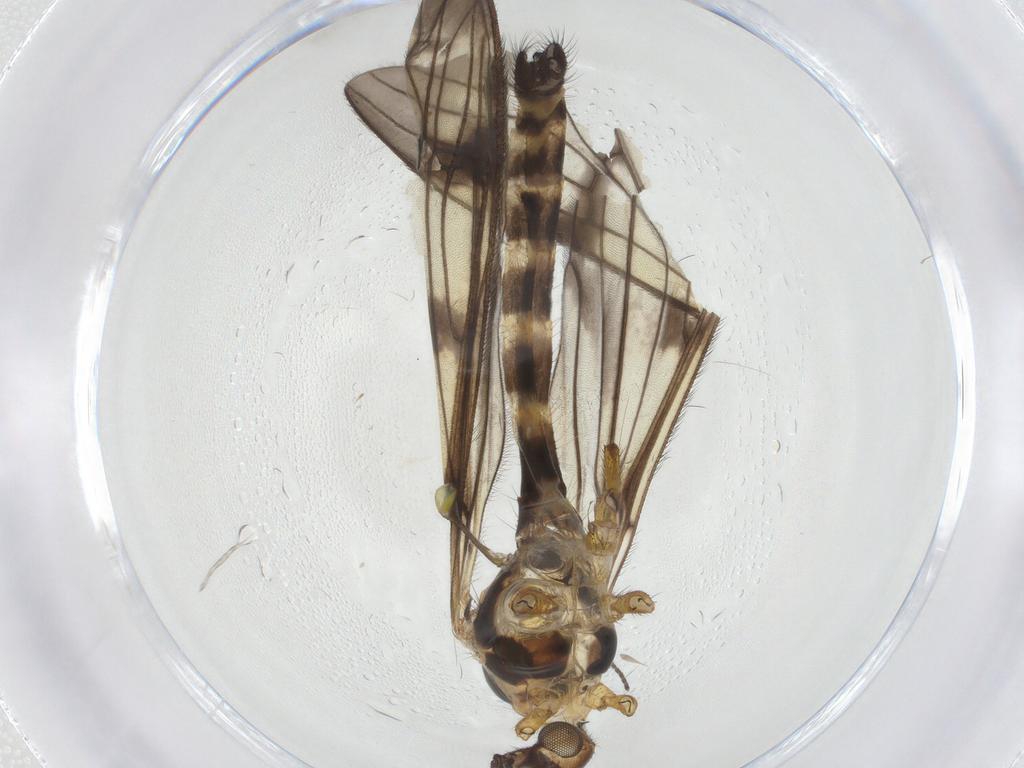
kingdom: Animalia
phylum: Arthropoda
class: Insecta
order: Diptera
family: Limoniidae
